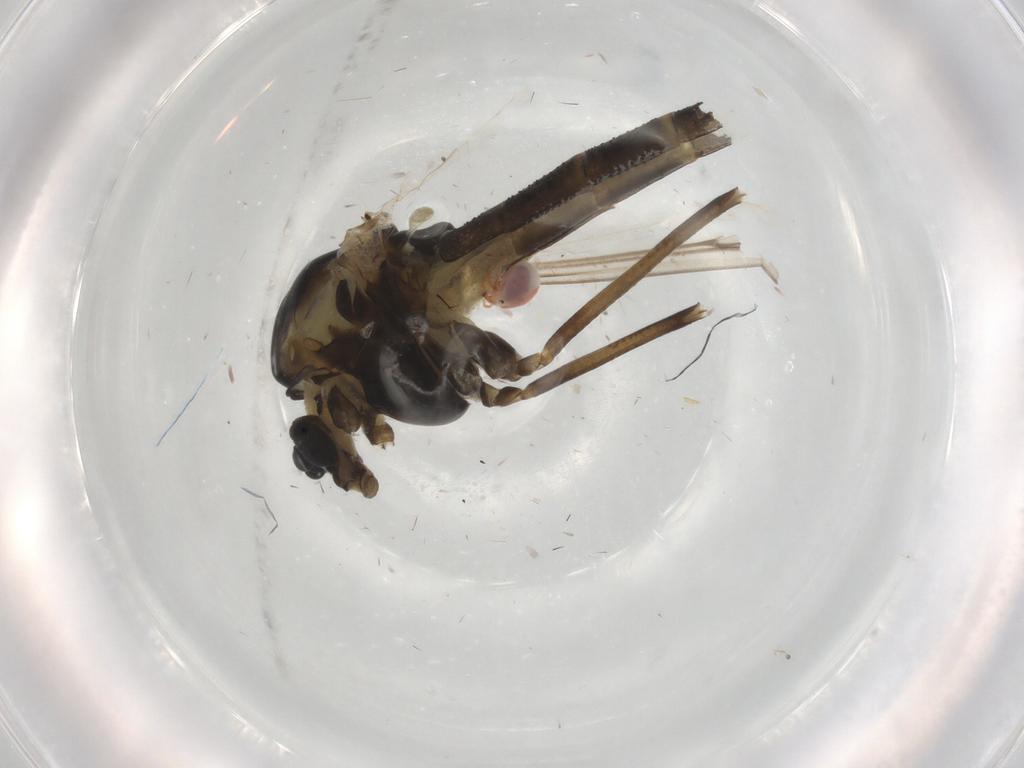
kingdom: Animalia
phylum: Arthropoda
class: Insecta
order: Diptera
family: Chironomidae
